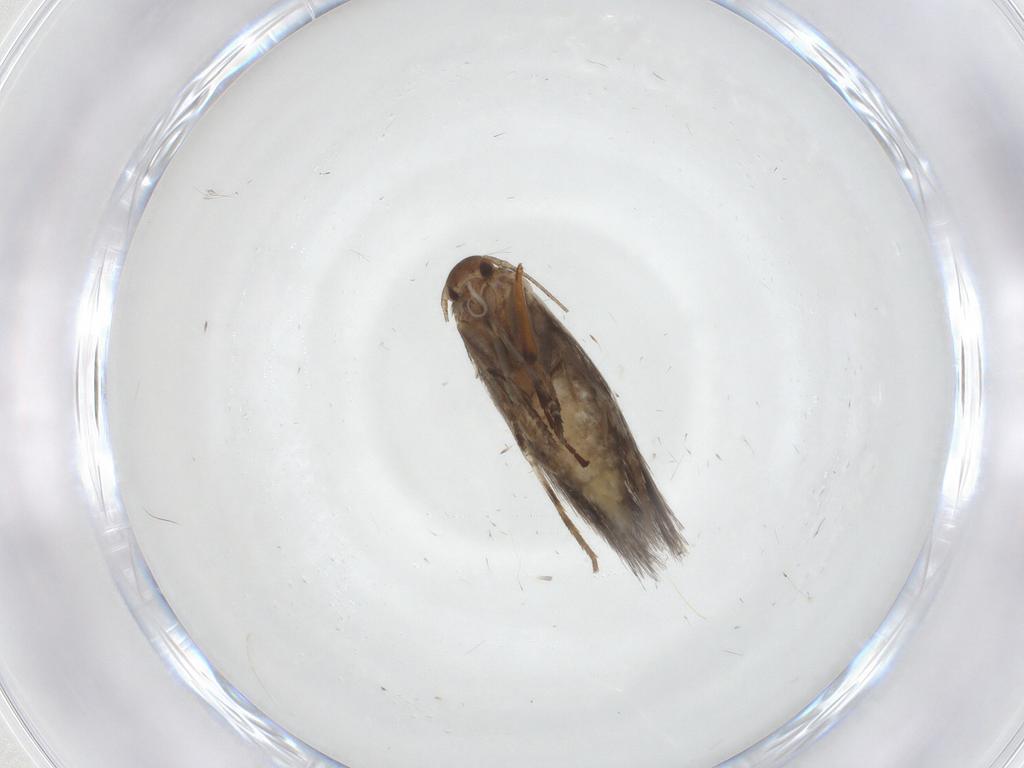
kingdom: Animalia
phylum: Arthropoda
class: Insecta
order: Lepidoptera
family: Elachistidae
